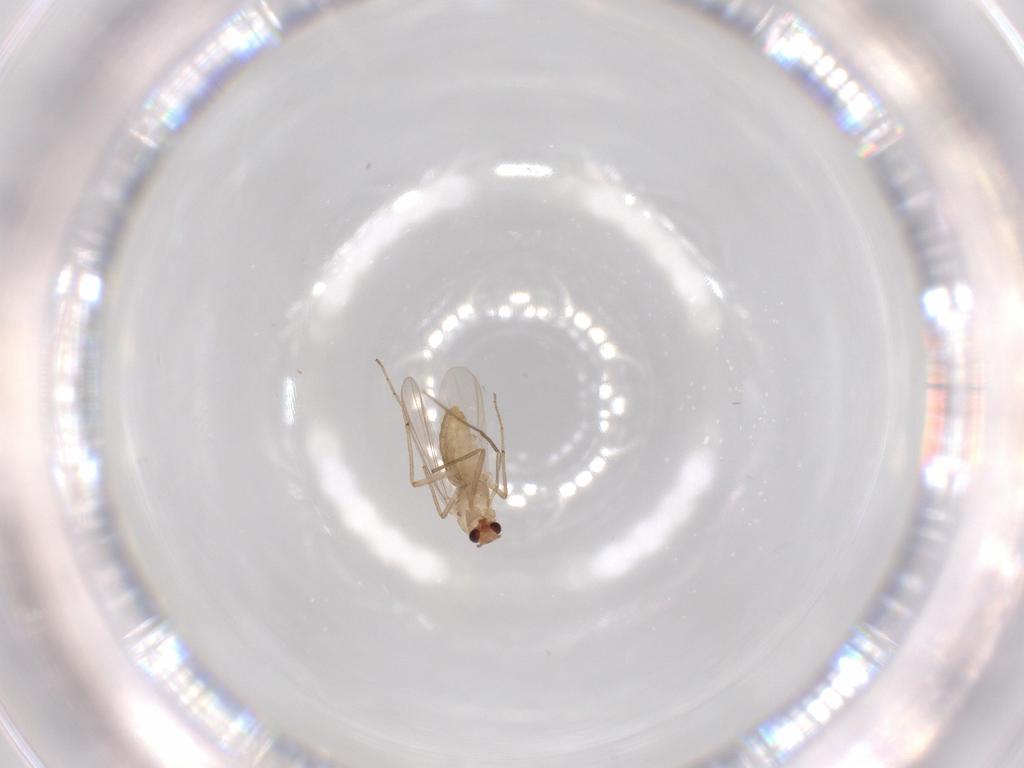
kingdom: Animalia
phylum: Arthropoda
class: Insecta
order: Diptera
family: Chironomidae
